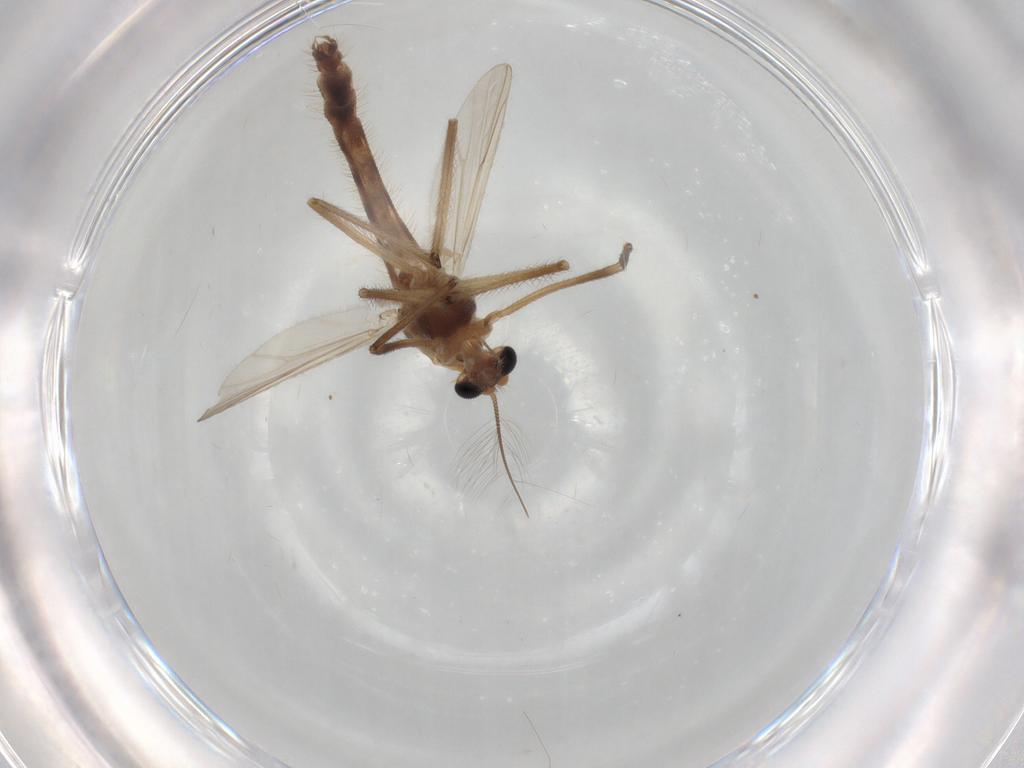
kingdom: Animalia
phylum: Arthropoda
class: Insecta
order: Diptera
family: Chironomidae
